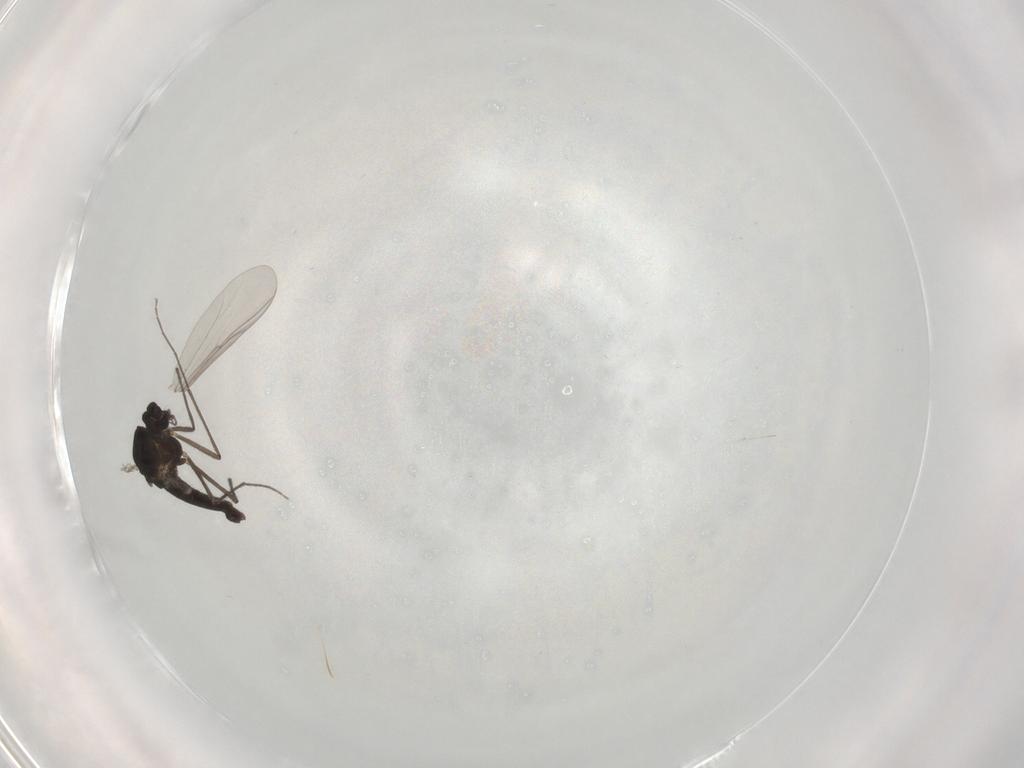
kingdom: Animalia
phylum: Arthropoda
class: Insecta
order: Diptera
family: Chironomidae
